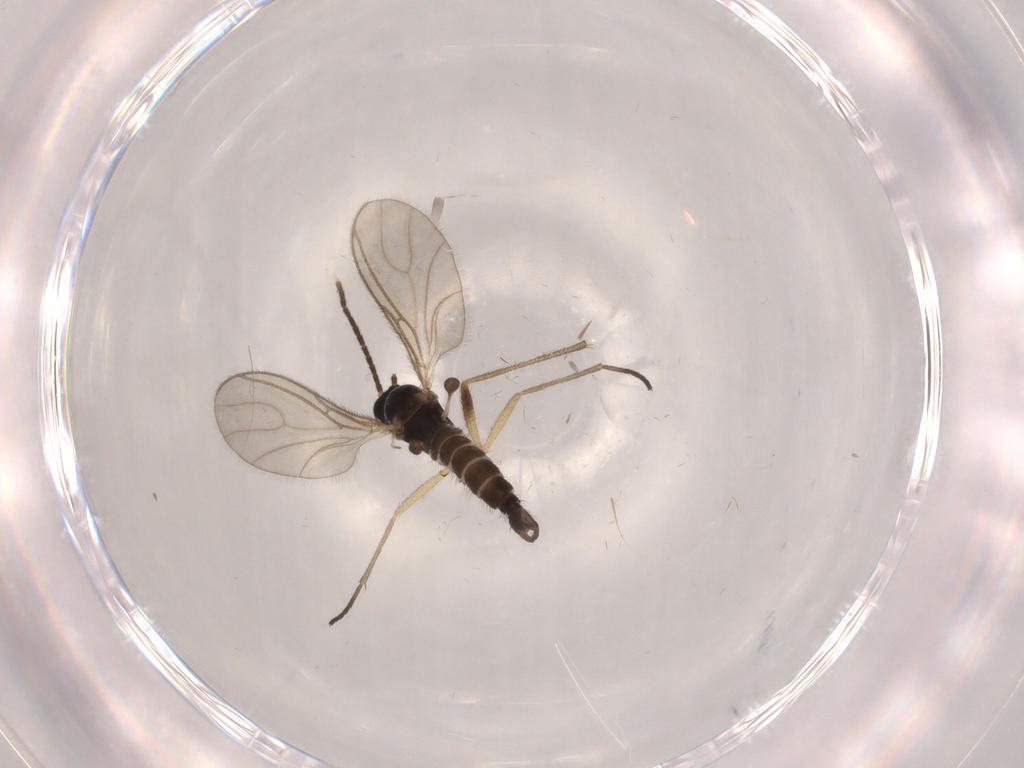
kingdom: Animalia
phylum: Arthropoda
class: Insecta
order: Diptera
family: Sciaridae
